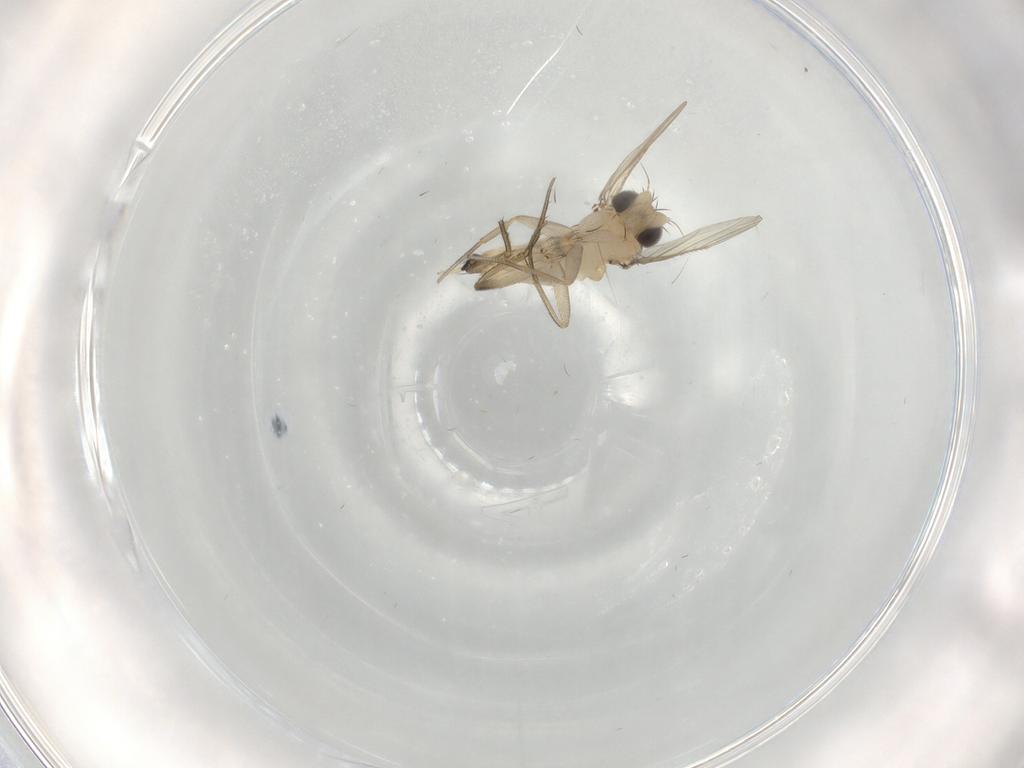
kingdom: Animalia
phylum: Arthropoda
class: Insecta
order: Diptera
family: Phoridae
